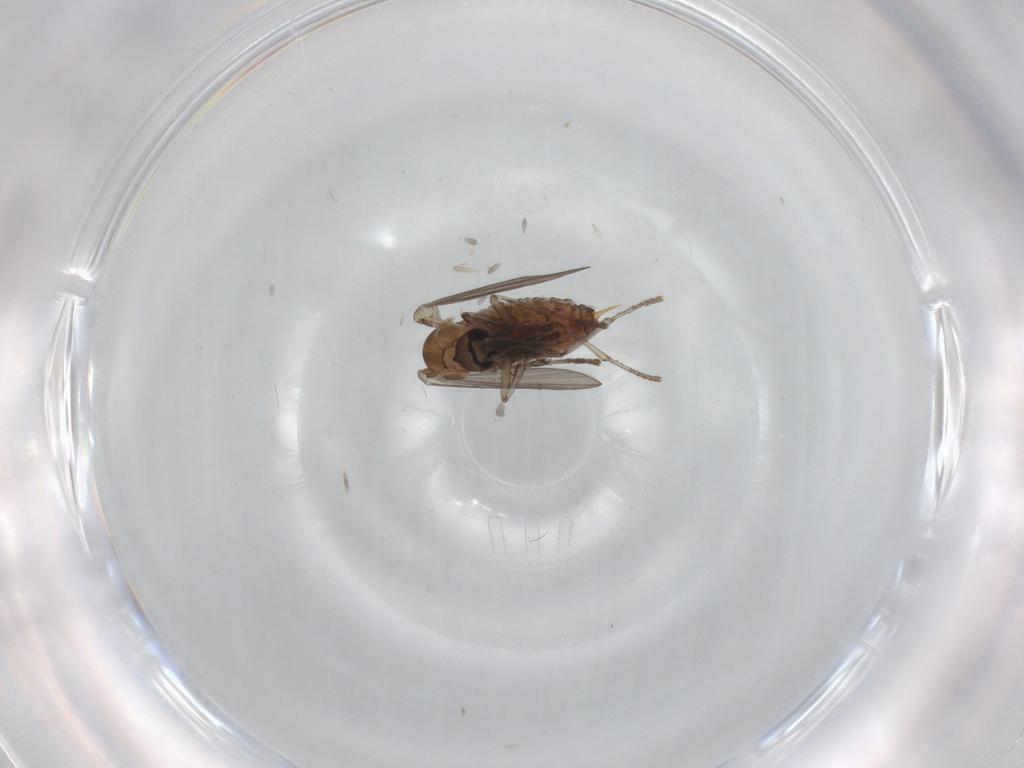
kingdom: Animalia
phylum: Arthropoda
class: Insecta
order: Diptera
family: Psychodidae
